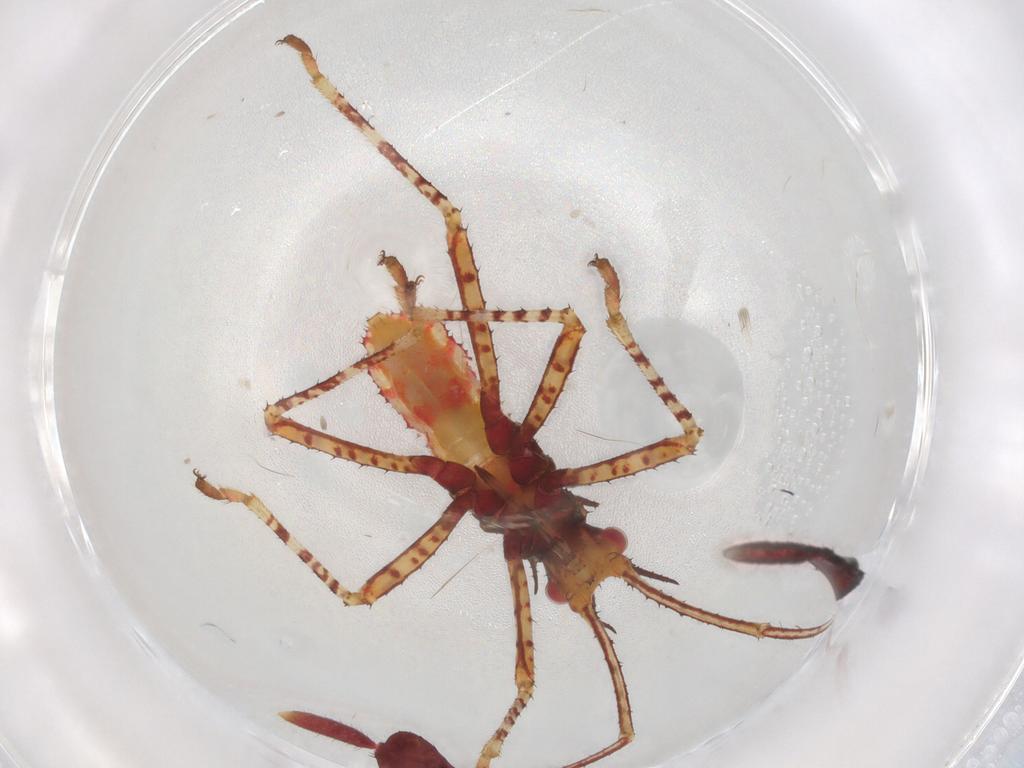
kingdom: Animalia
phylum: Arthropoda
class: Insecta
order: Hemiptera
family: Coreidae
